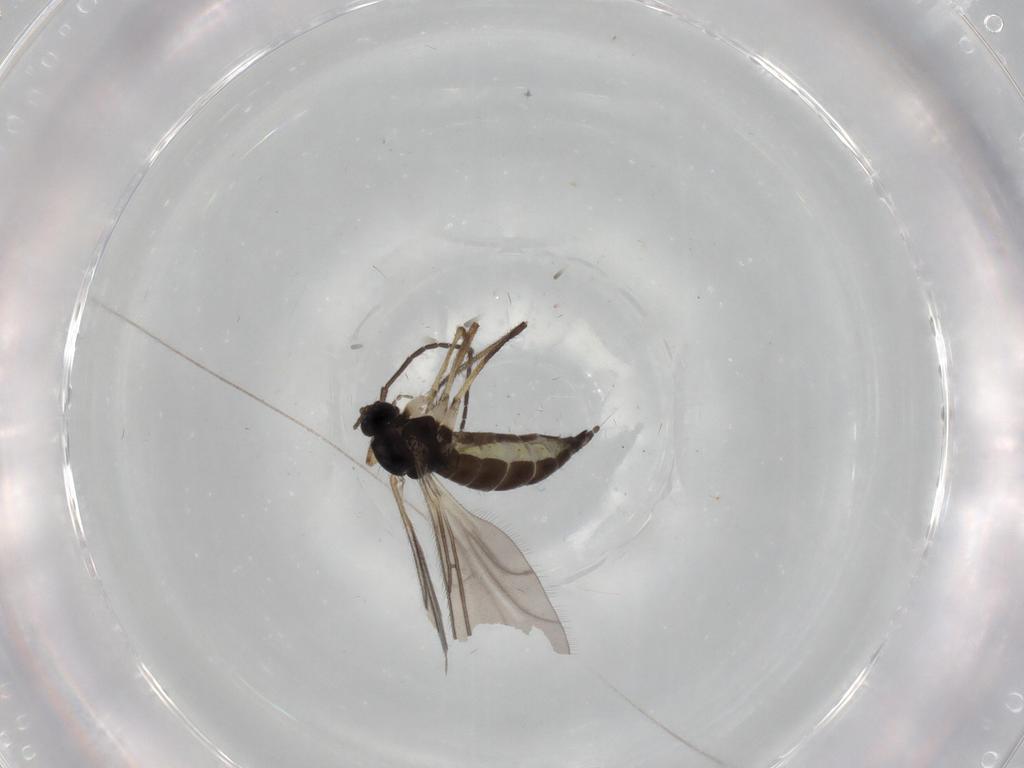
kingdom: Animalia
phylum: Arthropoda
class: Insecta
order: Diptera
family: Sciaridae
